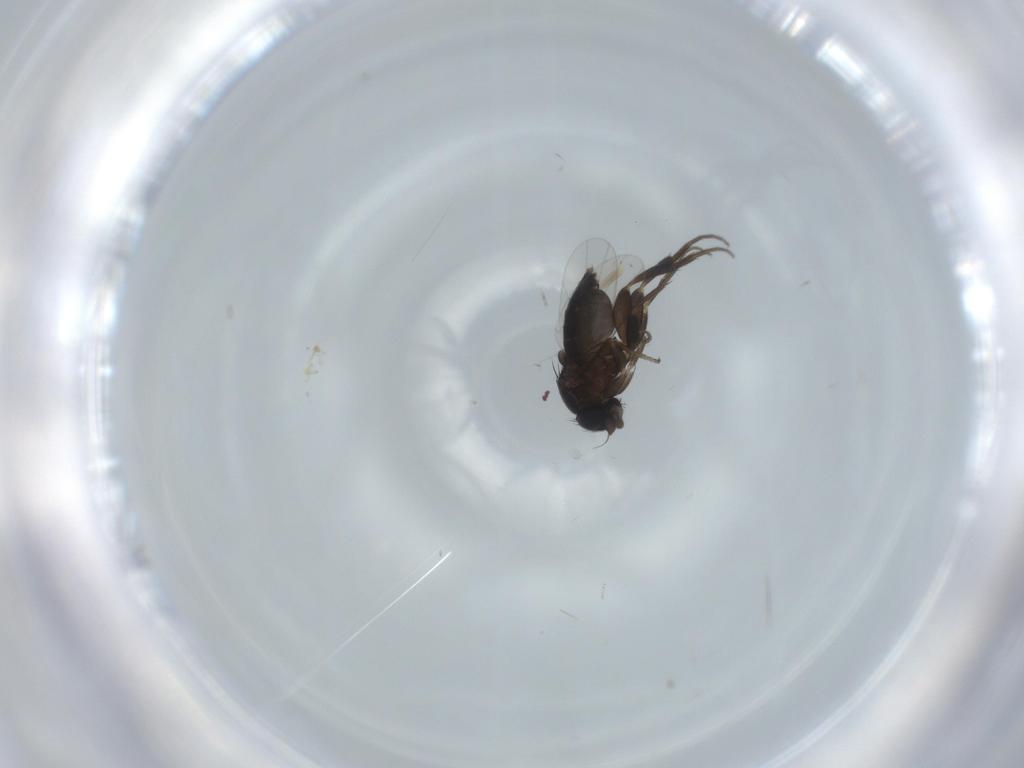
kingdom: Animalia
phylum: Arthropoda
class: Insecta
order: Diptera
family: Phoridae
